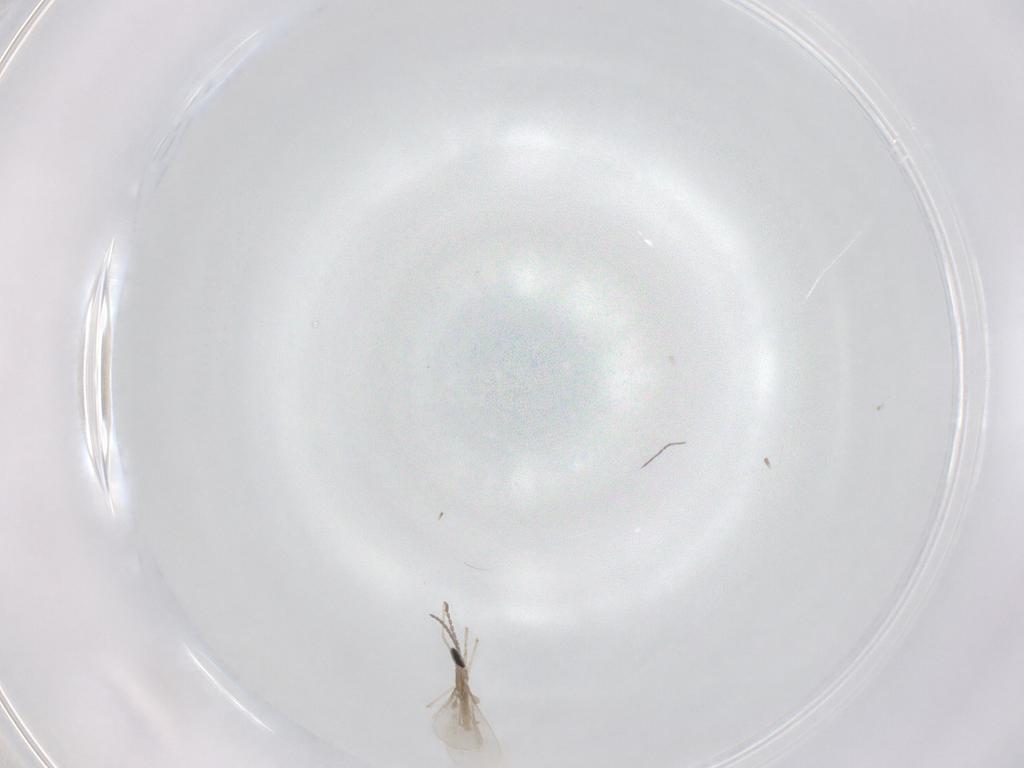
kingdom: Animalia
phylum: Arthropoda
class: Insecta
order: Diptera
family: Cecidomyiidae
